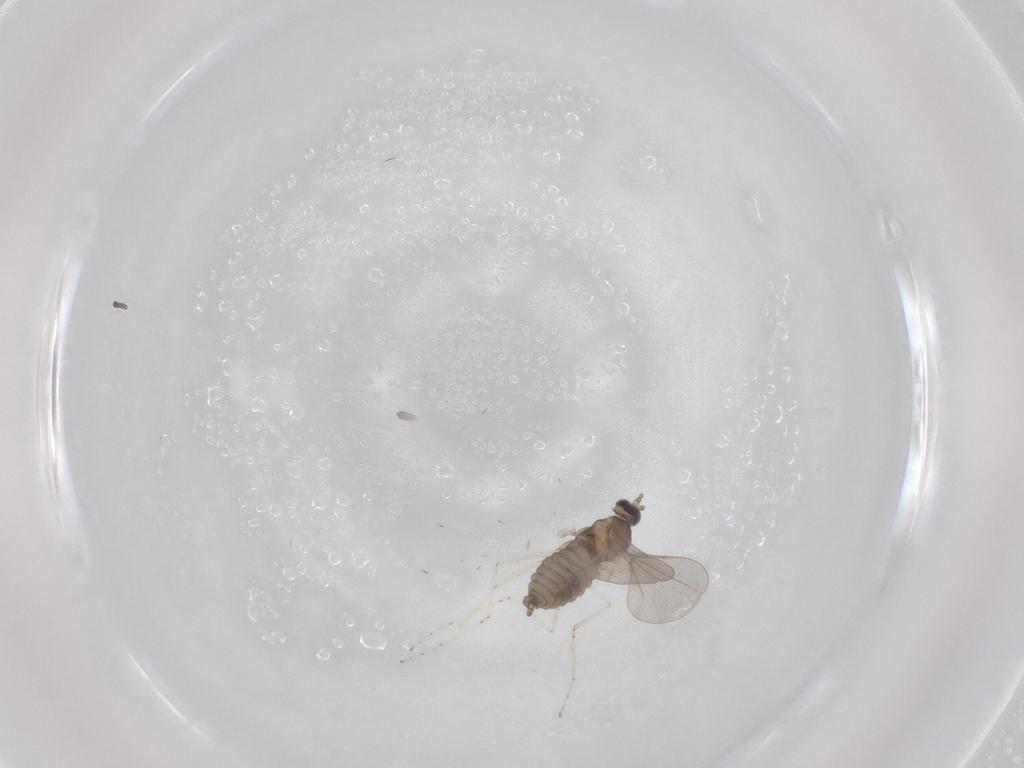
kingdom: Animalia
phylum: Arthropoda
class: Insecta
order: Diptera
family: Cecidomyiidae
